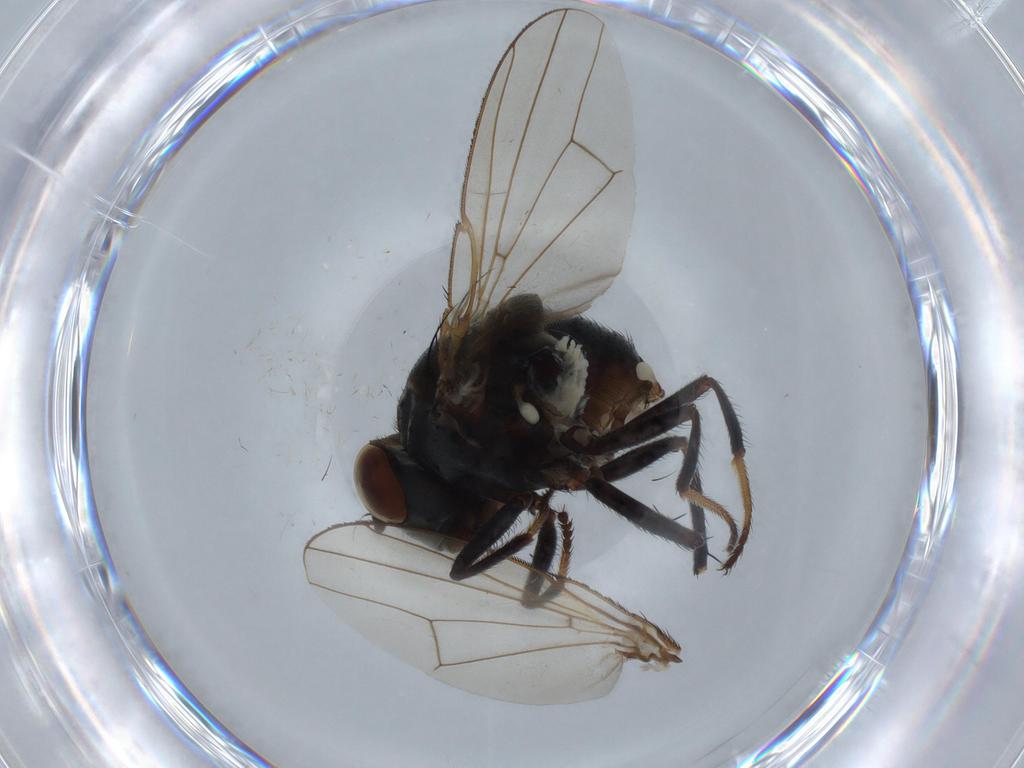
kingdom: Animalia
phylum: Arthropoda
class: Insecta
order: Diptera
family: Ephydridae
